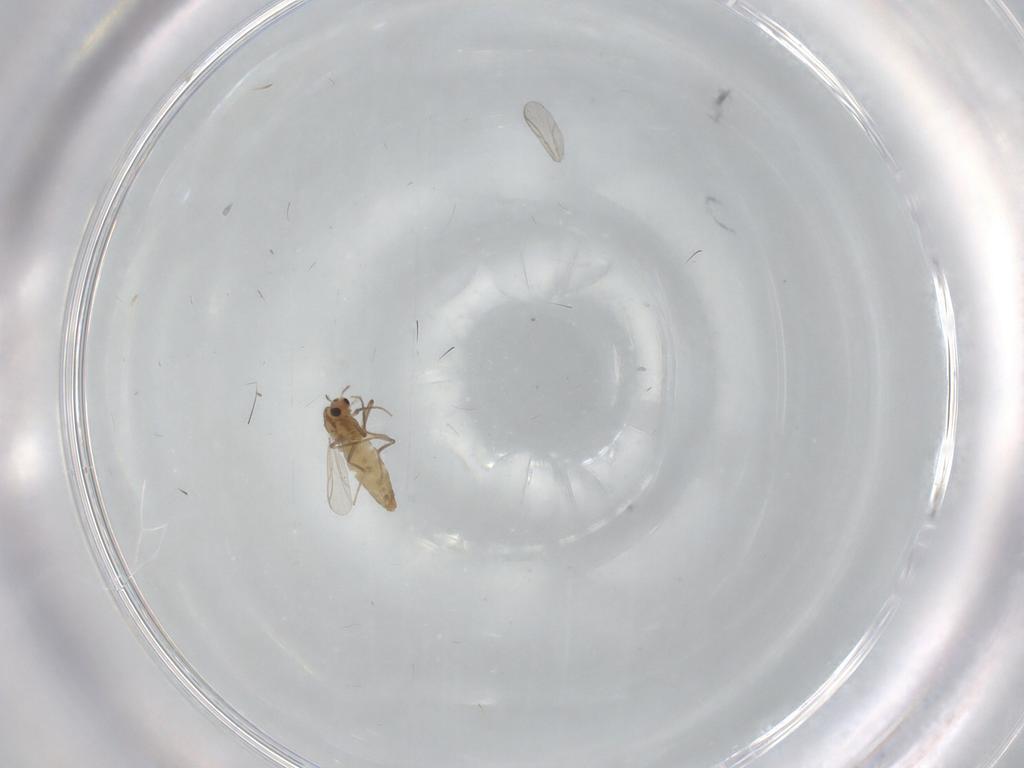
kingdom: Animalia
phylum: Arthropoda
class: Insecta
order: Diptera
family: Chironomidae
